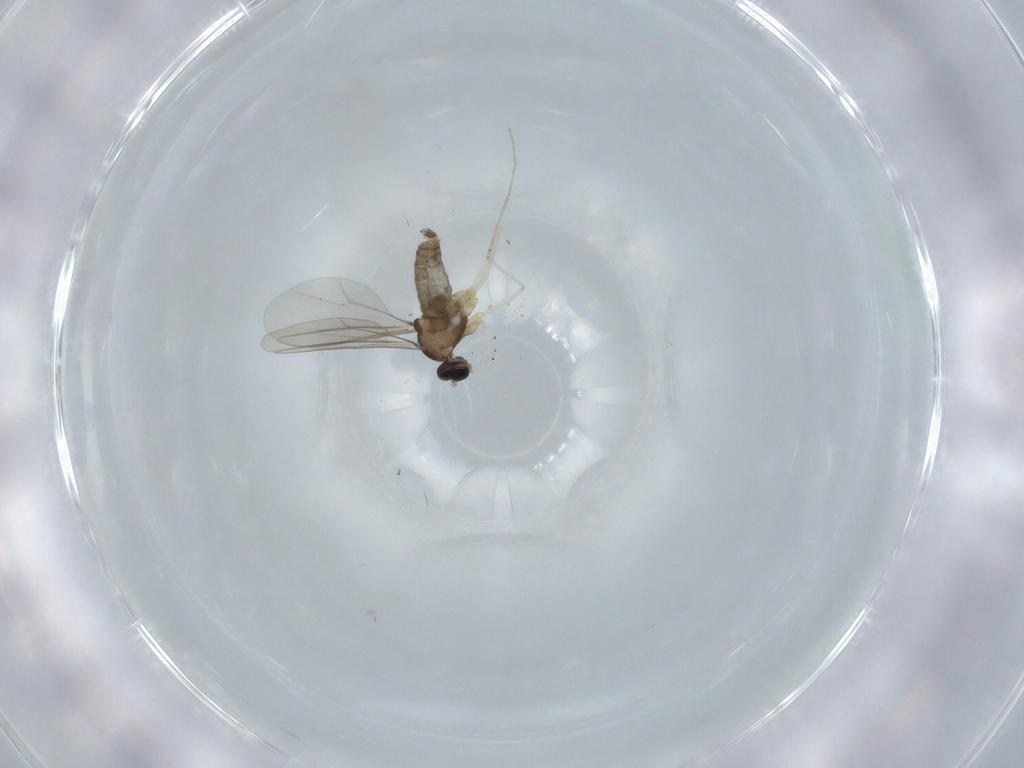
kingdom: Animalia
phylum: Arthropoda
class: Insecta
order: Diptera
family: Cecidomyiidae
